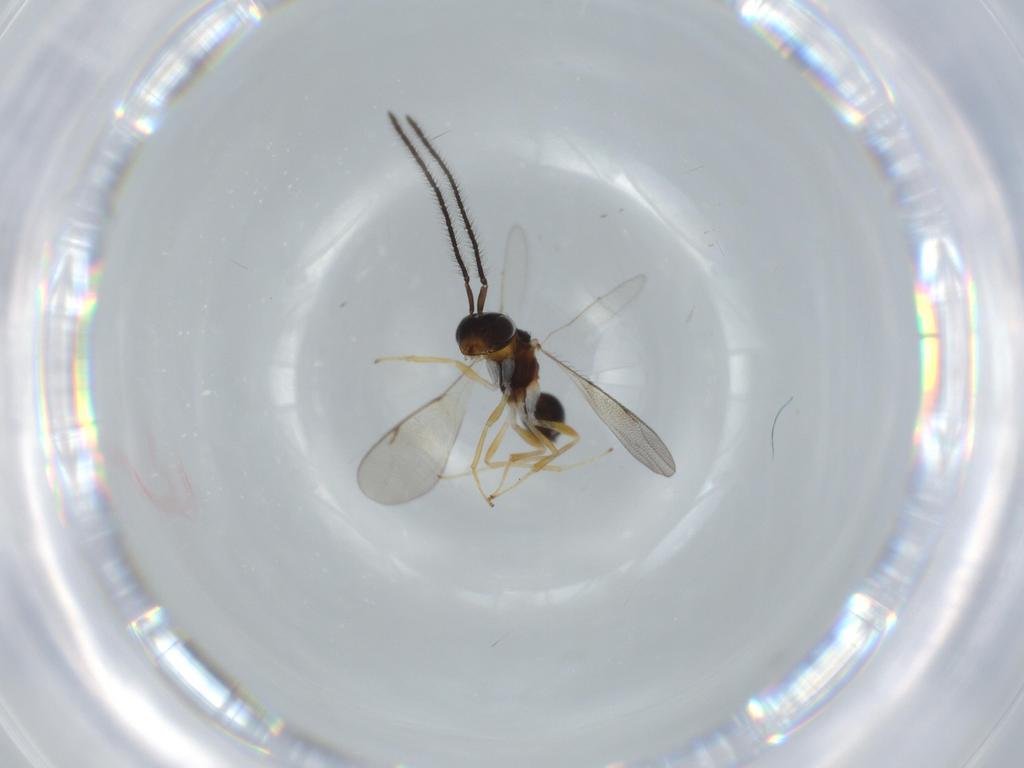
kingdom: Animalia
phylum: Arthropoda
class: Insecta
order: Hymenoptera
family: Diparidae
